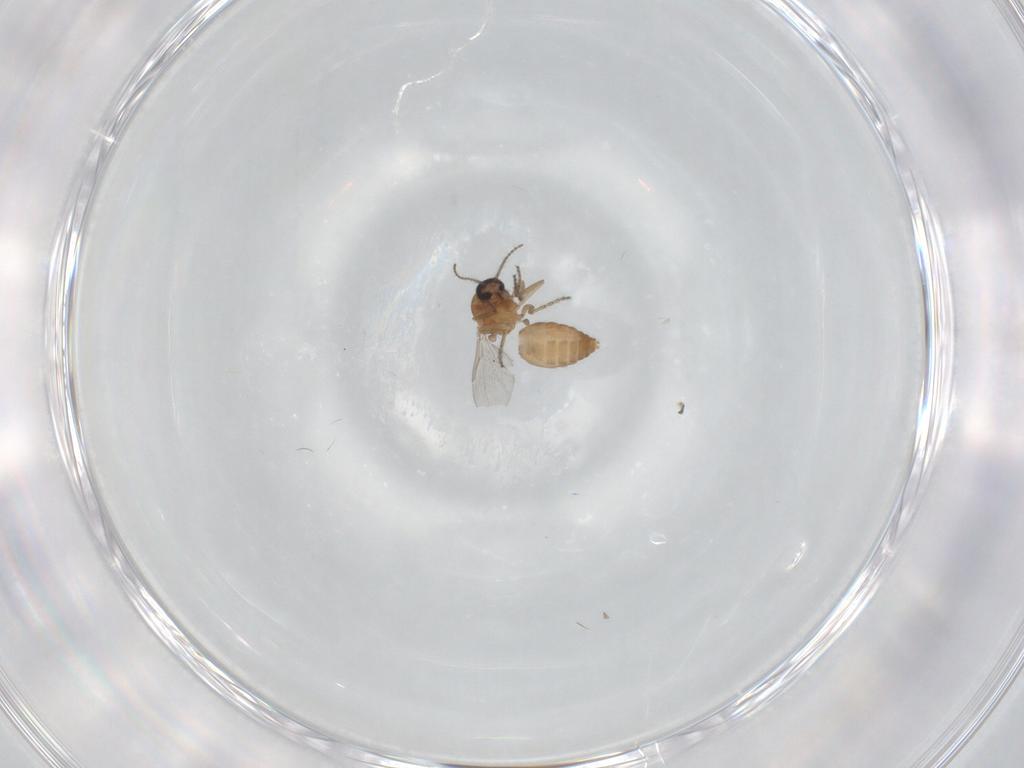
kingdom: Animalia
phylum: Arthropoda
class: Insecta
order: Diptera
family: Ceratopogonidae
